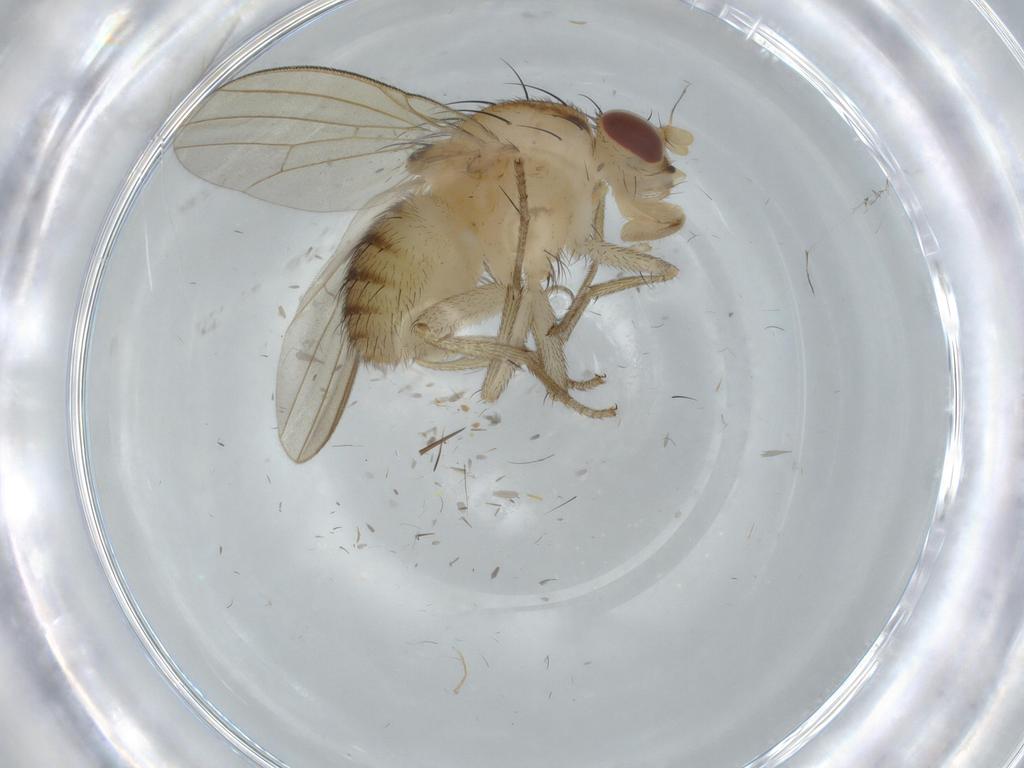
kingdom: Animalia
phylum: Arthropoda
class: Insecta
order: Diptera
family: Lauxaniidae
